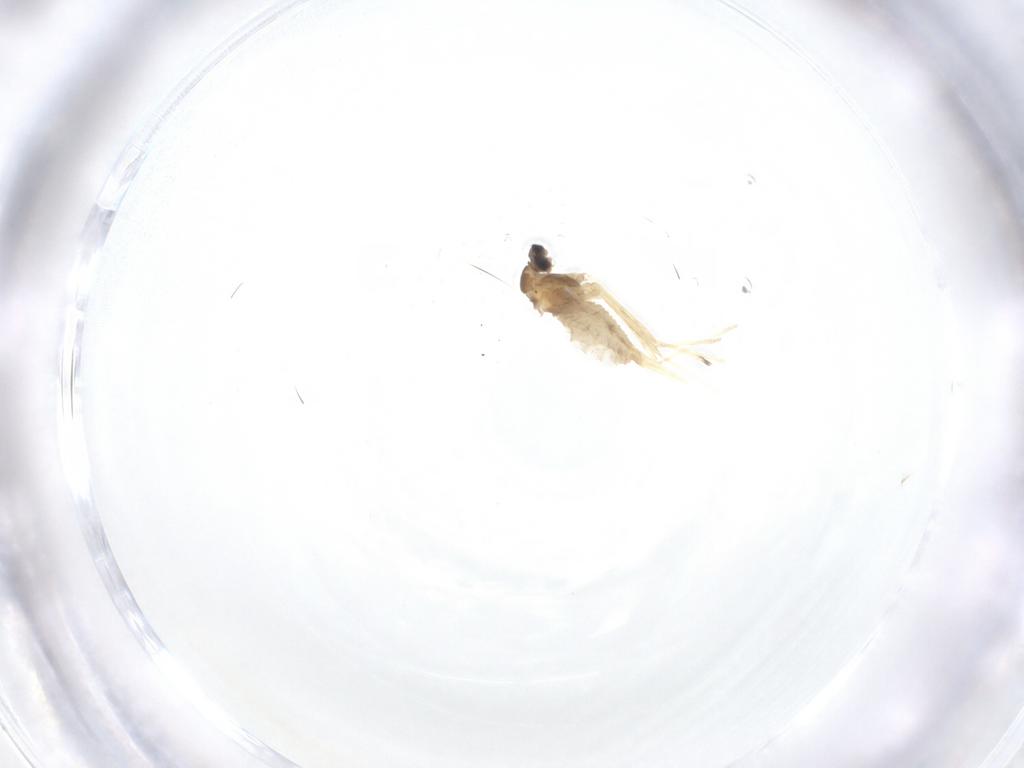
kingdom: Animalia
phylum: Arthropoda
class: Insecta
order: Diptera
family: Cecidomyiidae
